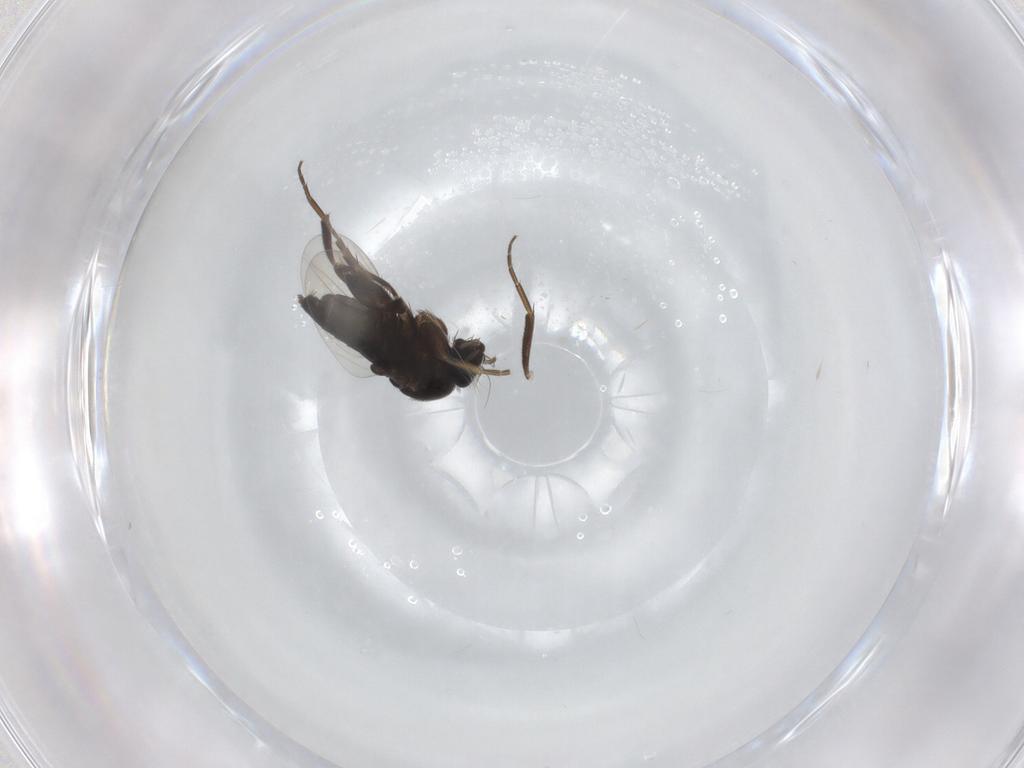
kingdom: Animalia
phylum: Arthropoda
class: Insecta
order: Diptera
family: Phoridae
